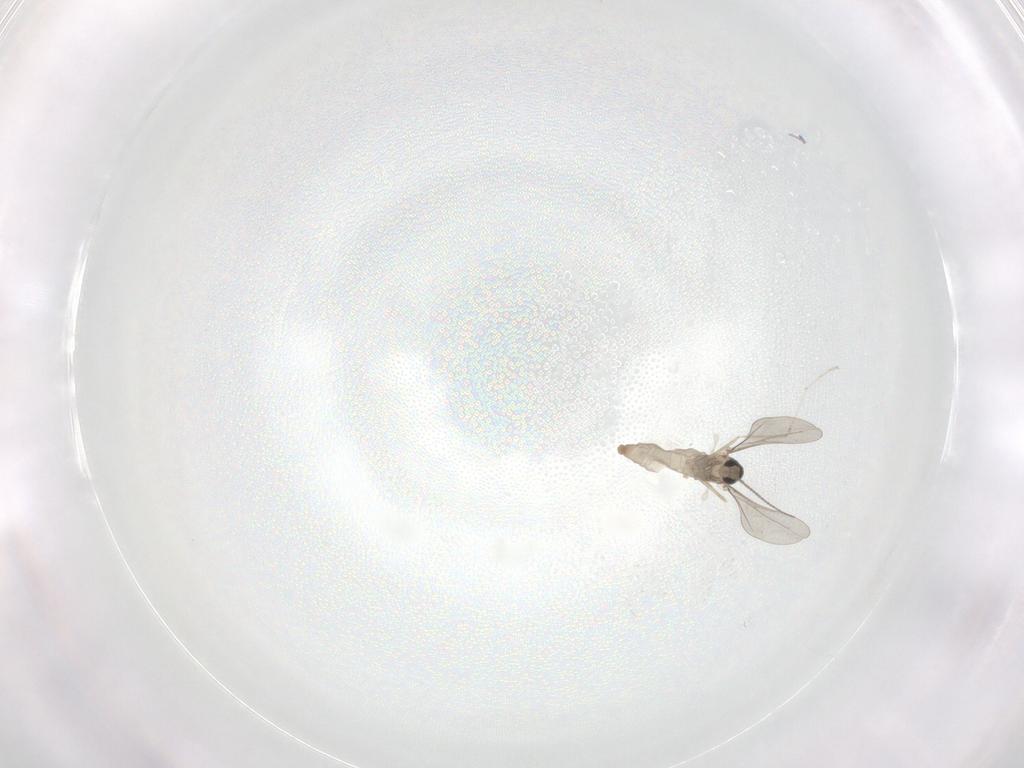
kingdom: Animalia
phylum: Arthropoda
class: Insecta
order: Diptera
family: Cecidomyiidae
